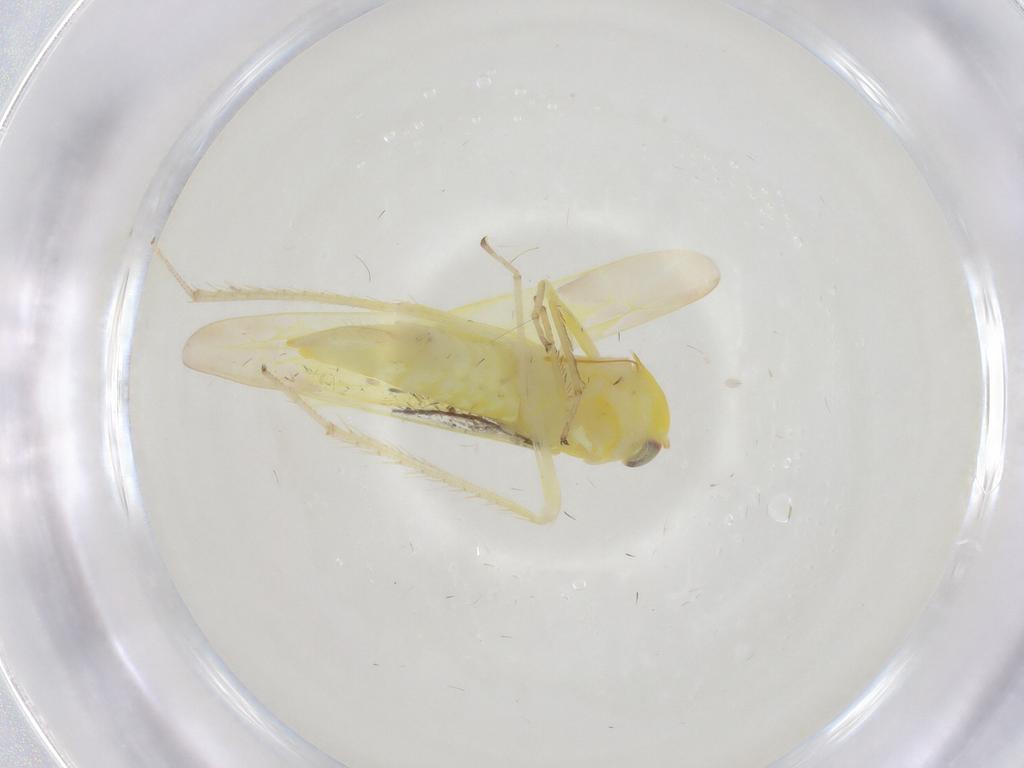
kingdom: Animalia
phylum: Arthropoda
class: Insecta
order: Hemiptera
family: Cicadellidae
